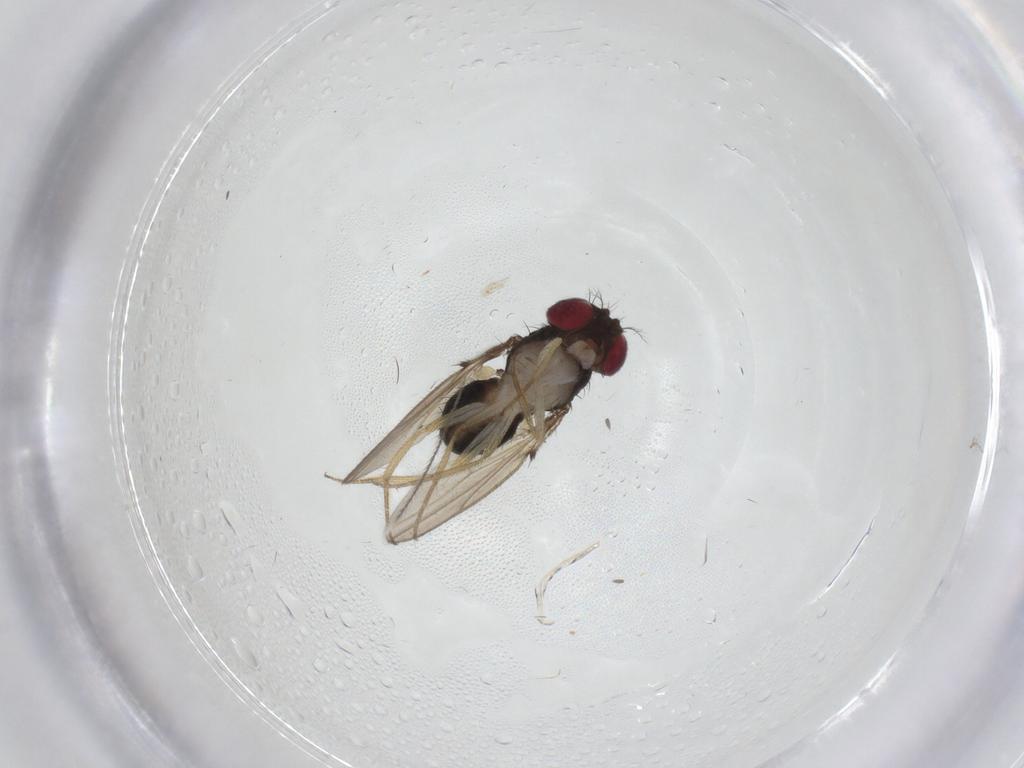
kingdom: Animalia
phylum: Arthropoda
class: Insecta
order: Diptera
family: Drosophilidae
